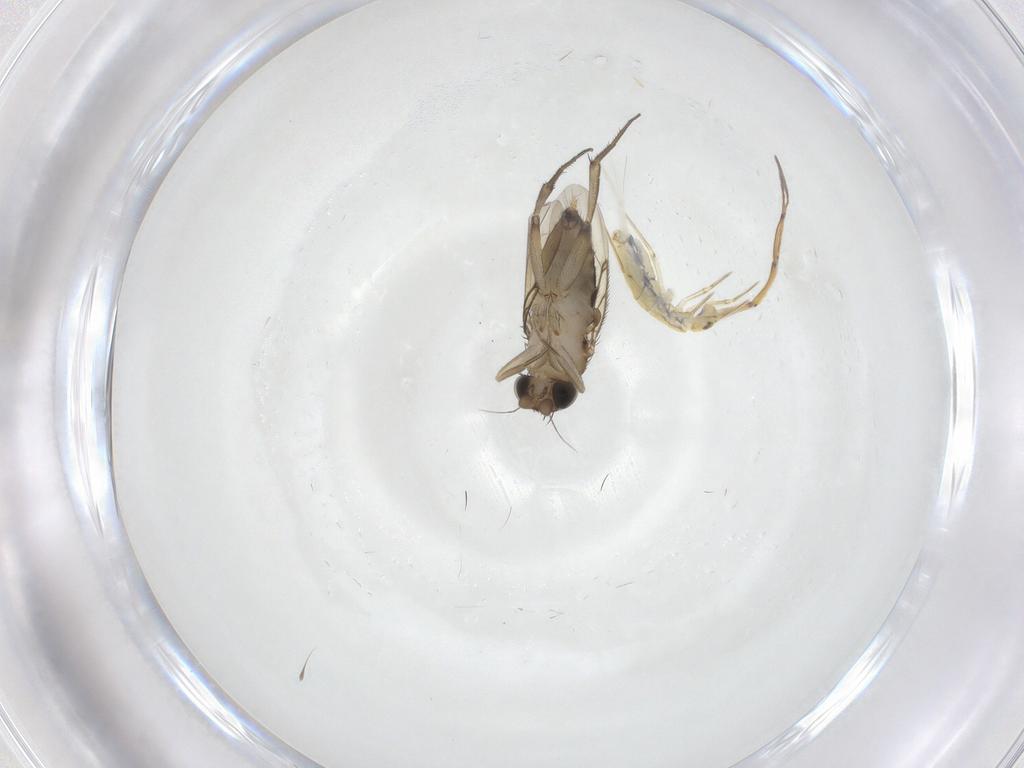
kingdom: Animalia
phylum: Arthropoda
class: Insecta
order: Diptera
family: Phoridae
